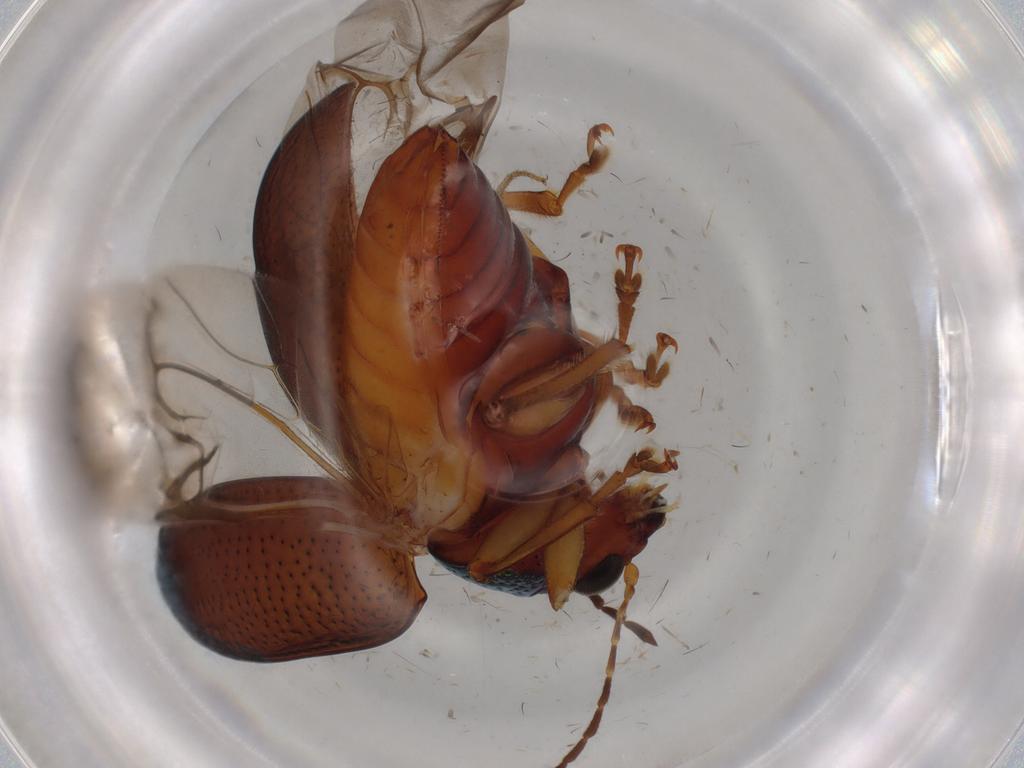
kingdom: Animalia
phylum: Arthropoda
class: Insecta
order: Coleoptera
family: Chrysomelidae
